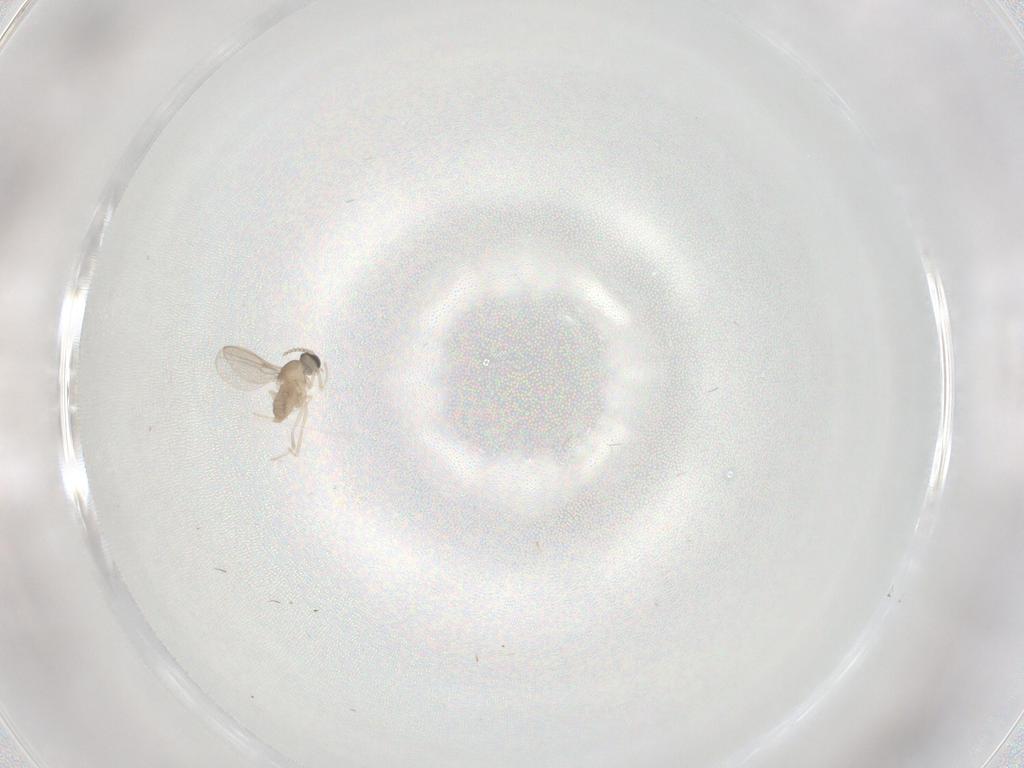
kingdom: Animalia
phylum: Arthropoda
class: Insecta
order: Diptera
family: Cecidomyiidae
